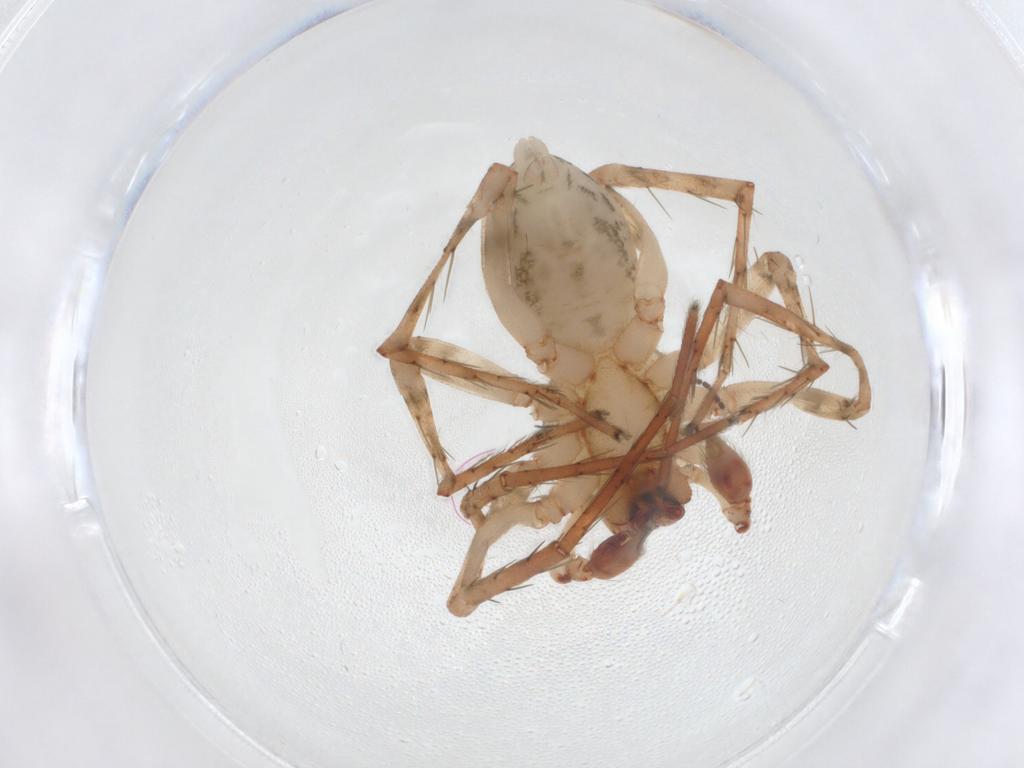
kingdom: Animalia
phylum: Arthropoda
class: Arachnida
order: Araneae
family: Anyphaenidae
